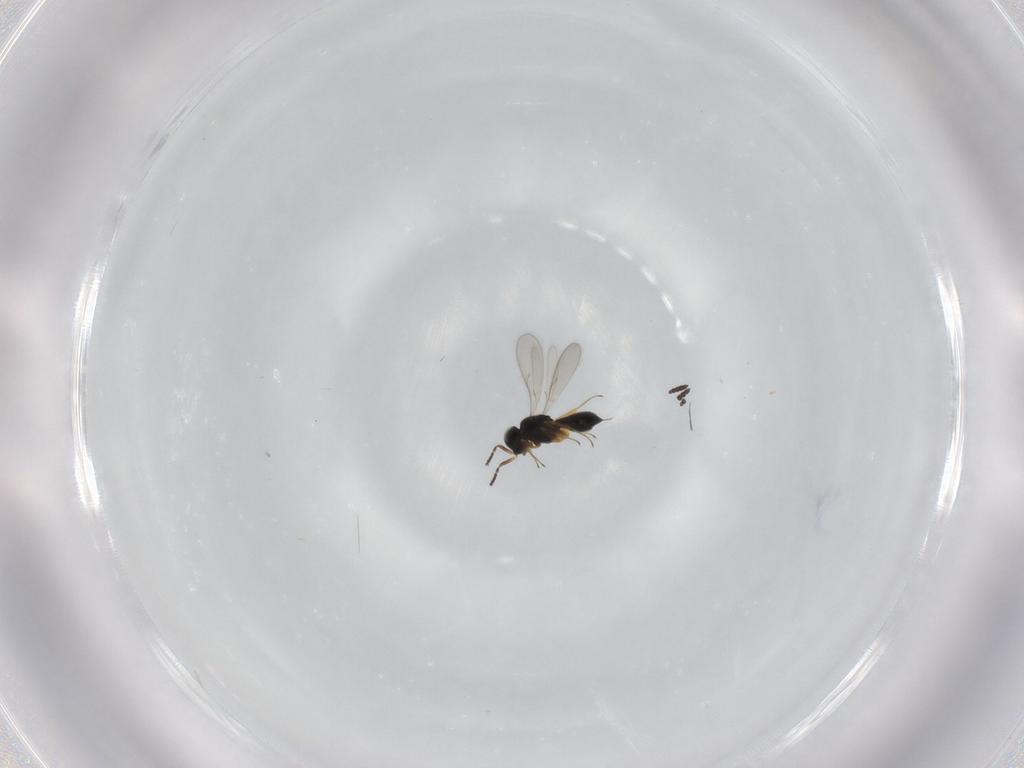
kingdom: Animalia
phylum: Arthropoda
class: Insecta
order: Hymenoptera
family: Scelionidae
